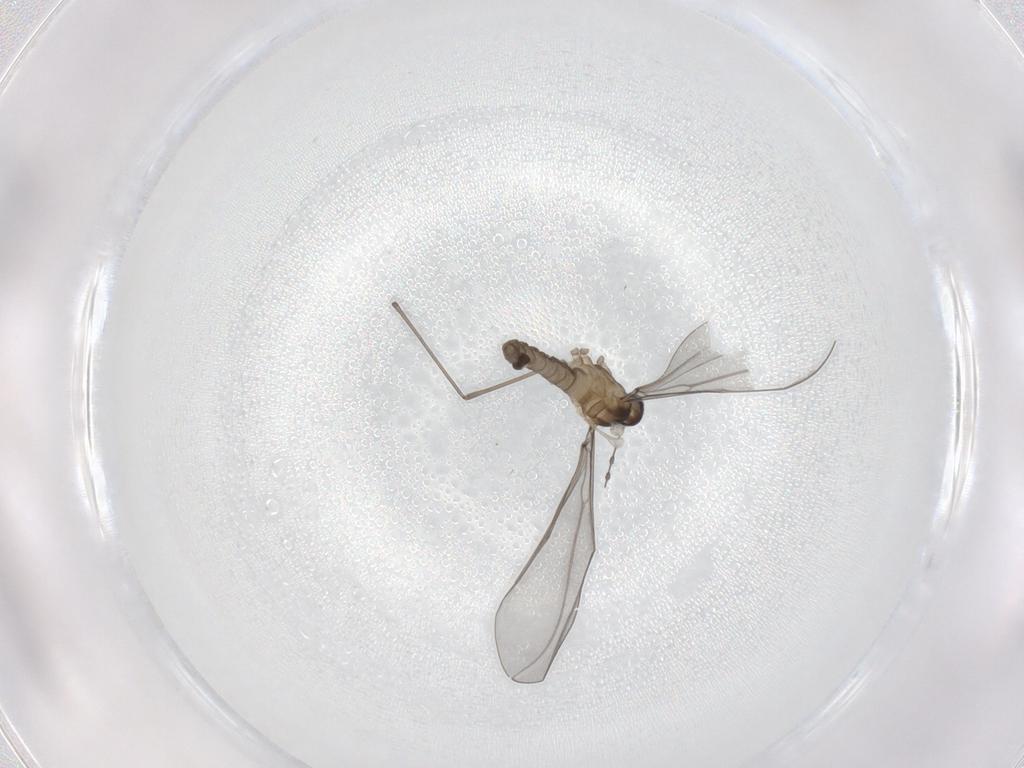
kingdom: Animalia
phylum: Arthropoda
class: Insecta
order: Diptera
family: Cecidomyiidae
